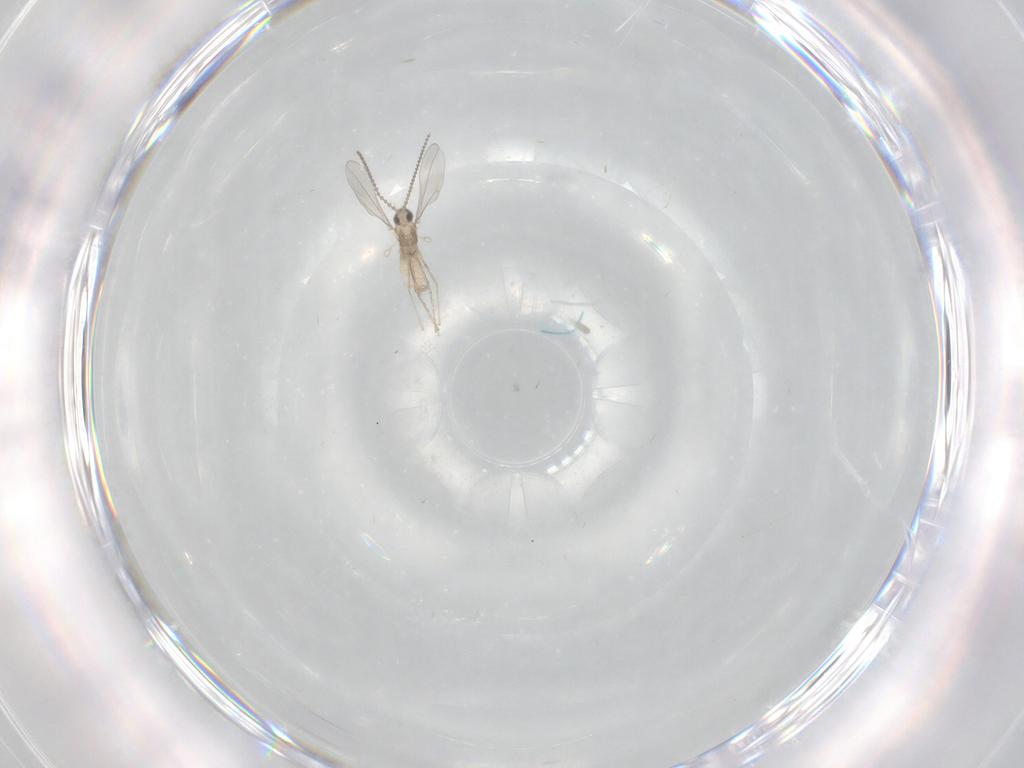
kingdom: Animalia
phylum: Arthropoda
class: Insecta
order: Diptera
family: Cecidomyiidae
